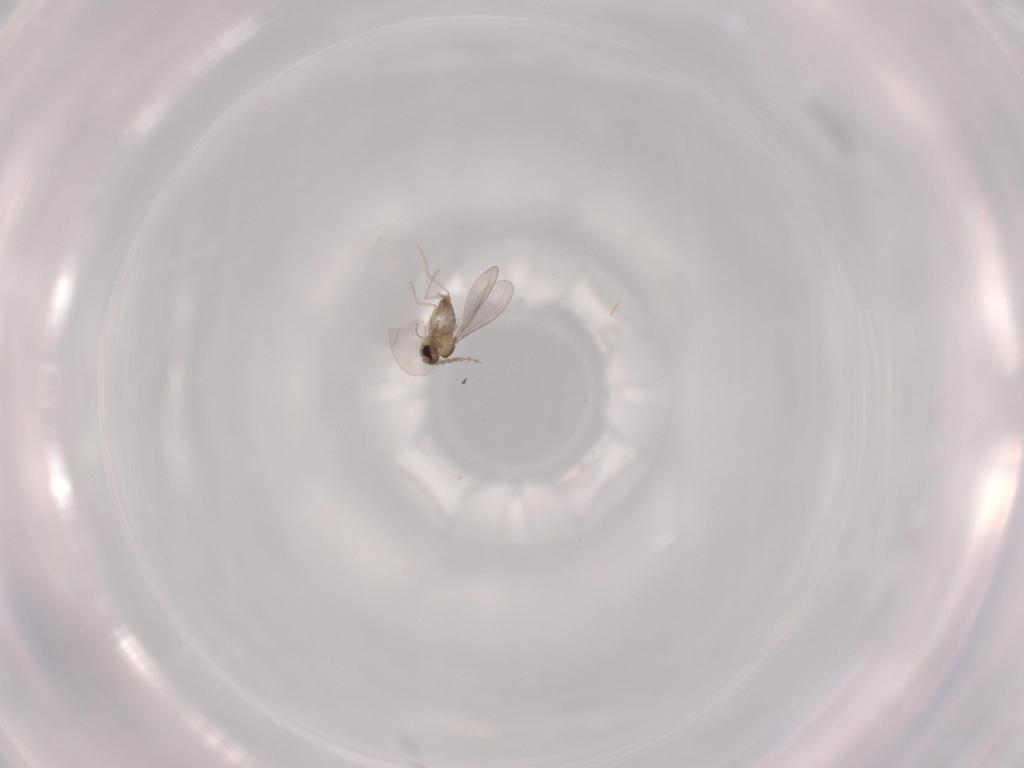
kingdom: Animalia
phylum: Arthropoda
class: Insecta
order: Diptera
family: Cecidomyiidae
